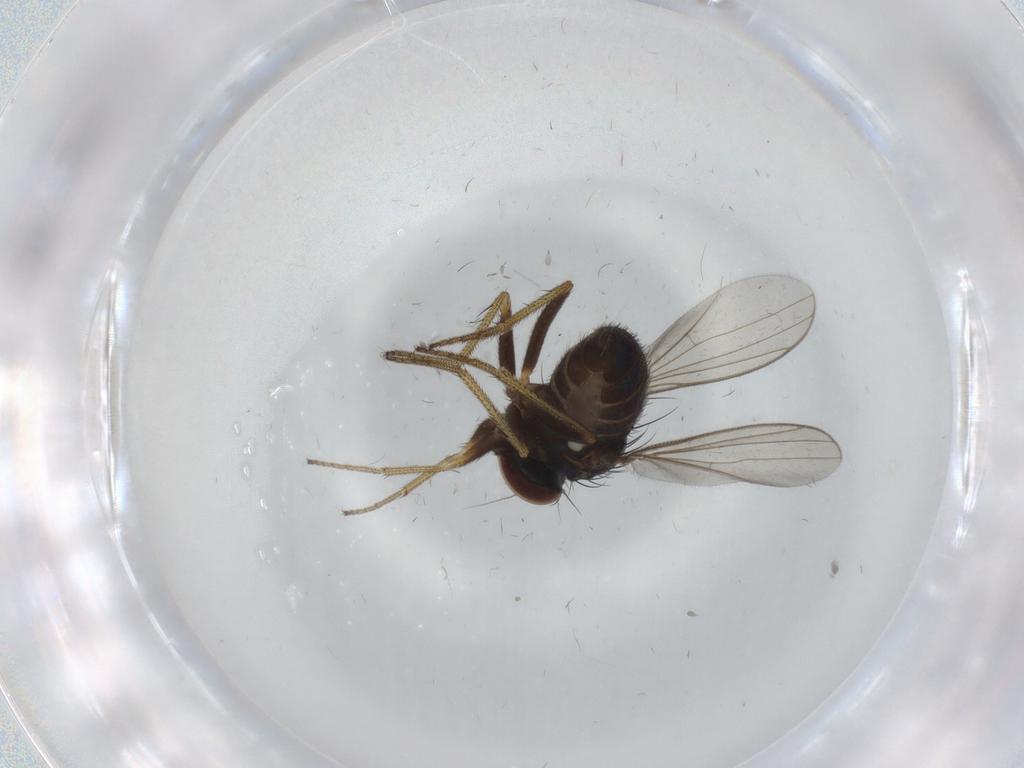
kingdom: Animalia
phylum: Arthropoda
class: Insecta
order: Diptera
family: Dolichopodidae
